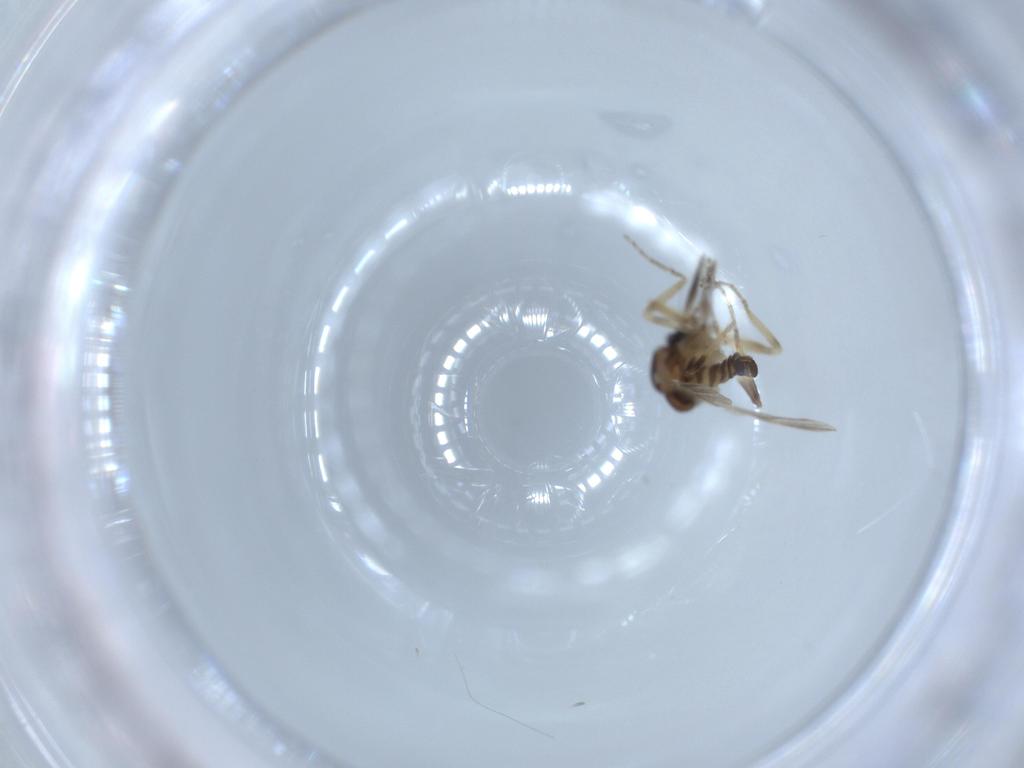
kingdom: Animalia
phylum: Arthropoda
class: Insecta
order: Diptera
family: Ceratopogonidae
